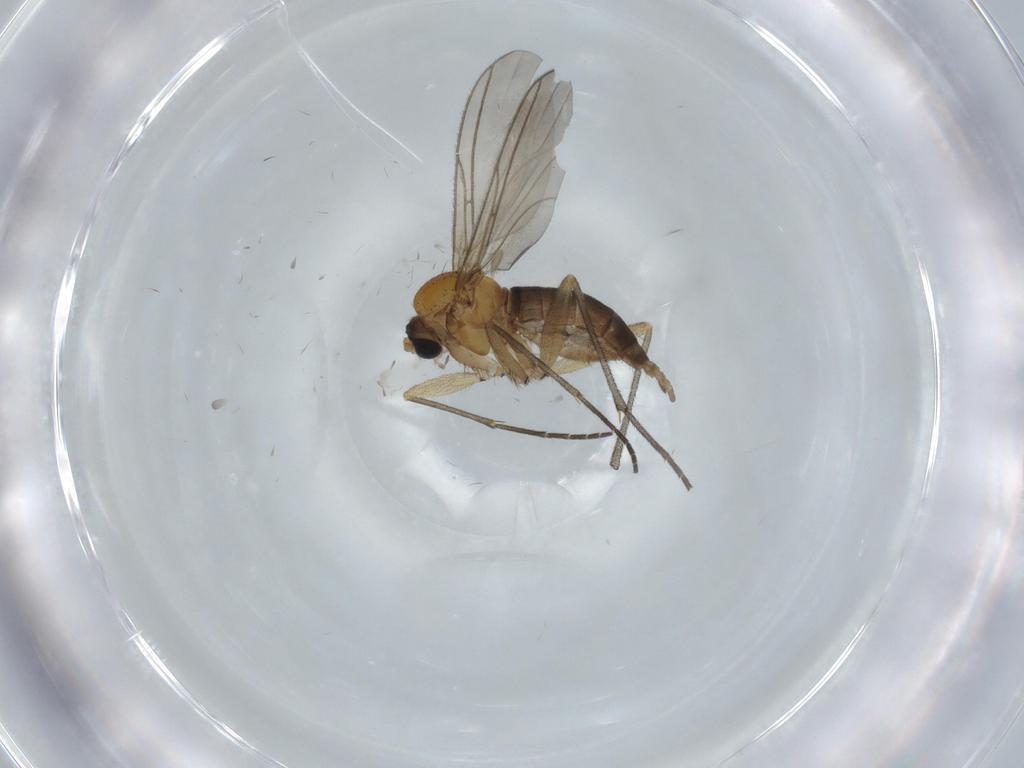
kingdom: Animalia
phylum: Arthropoda
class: Insecta
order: Diptera
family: Sciaridae
